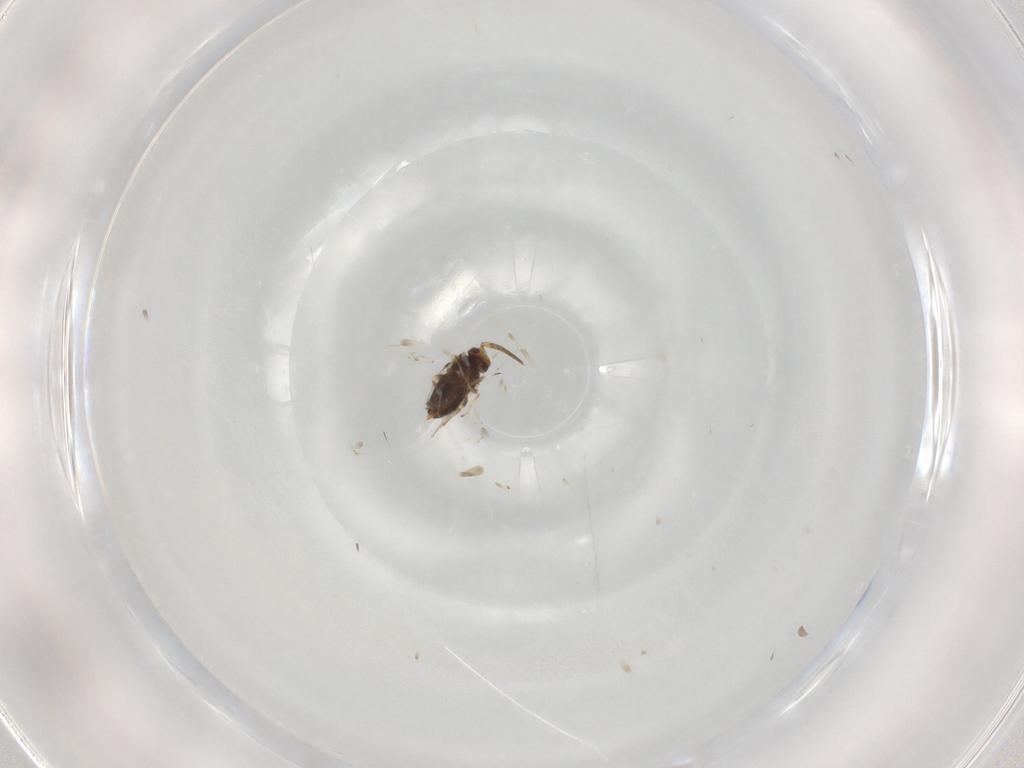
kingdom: Animalia
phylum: Arthropoda
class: Insecta
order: Hymenoptera
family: Aphelinidae
